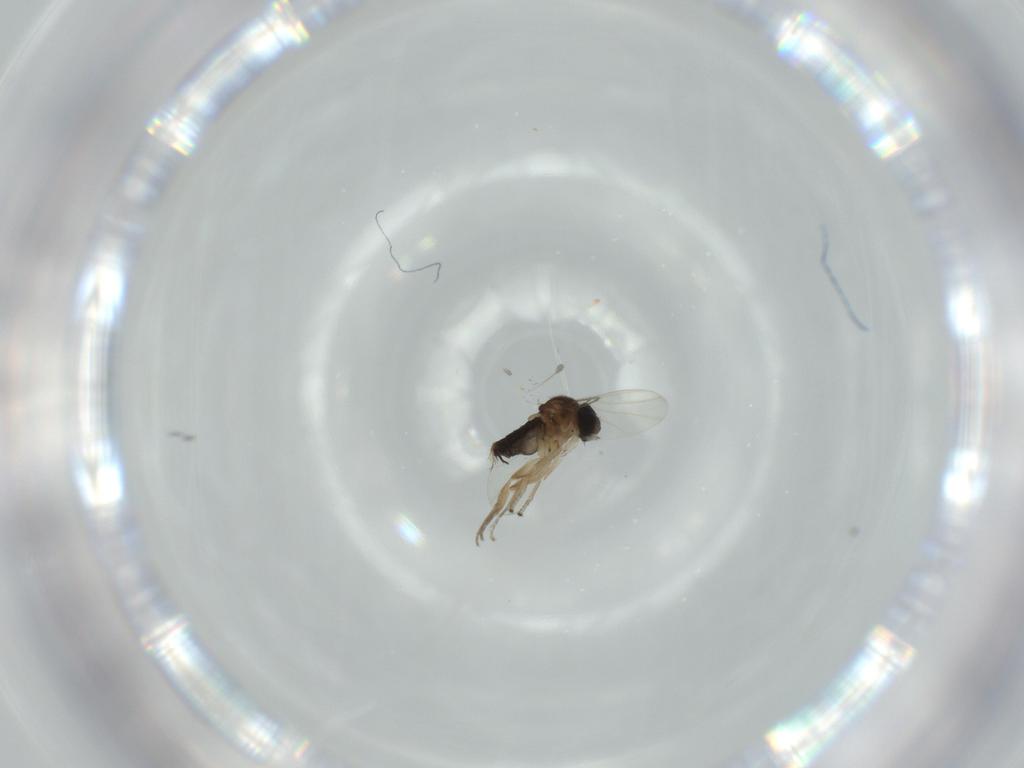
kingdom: Animalia
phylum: Arthropoda
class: Insecta
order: Diptera
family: Phoridae
